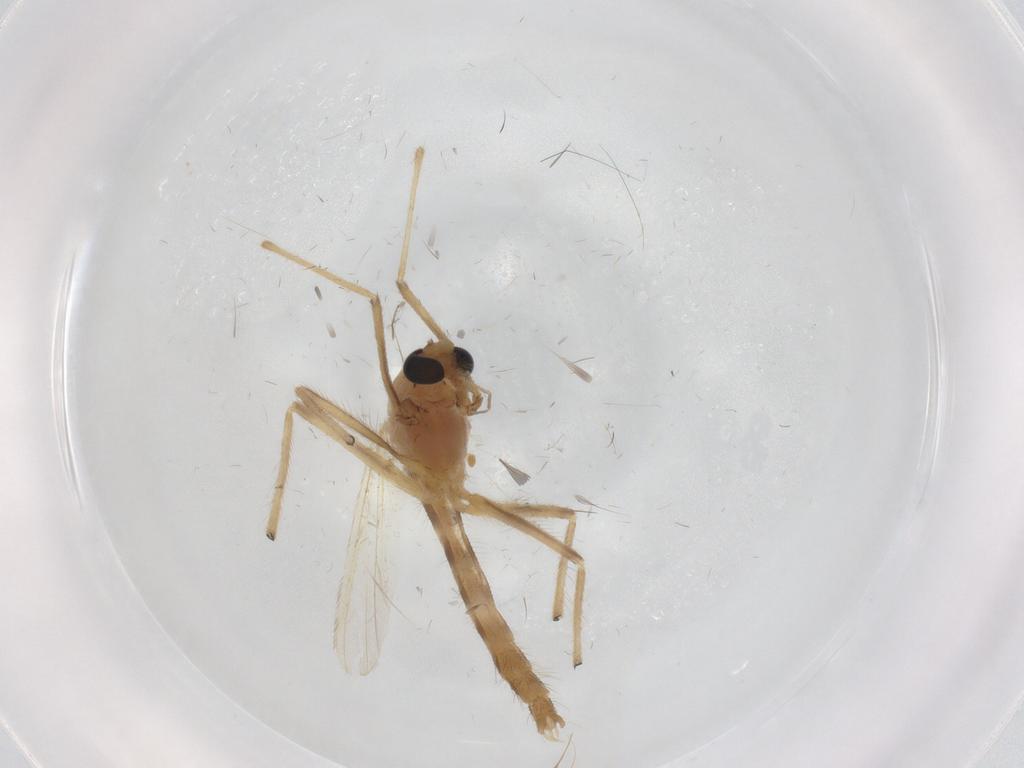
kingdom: Animalia
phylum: Arthropoda
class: Insecta
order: Diptera
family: Chironomidae
